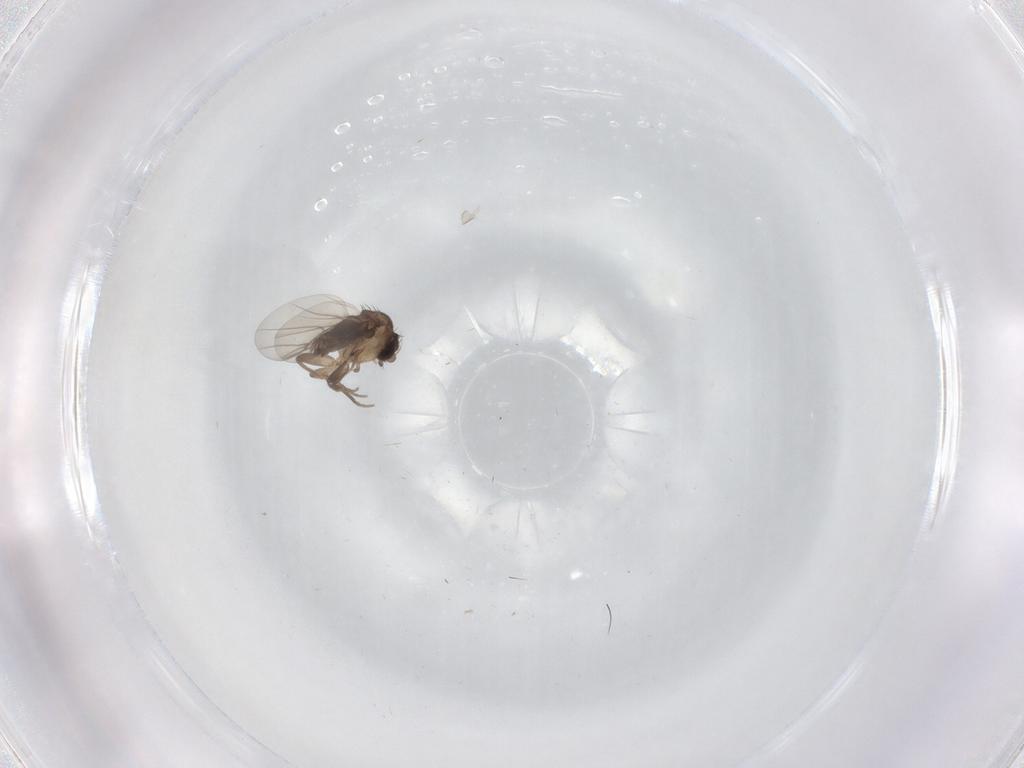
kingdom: Animalia
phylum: Arthropoda
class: Insecta
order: Diptera
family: Phoridae
